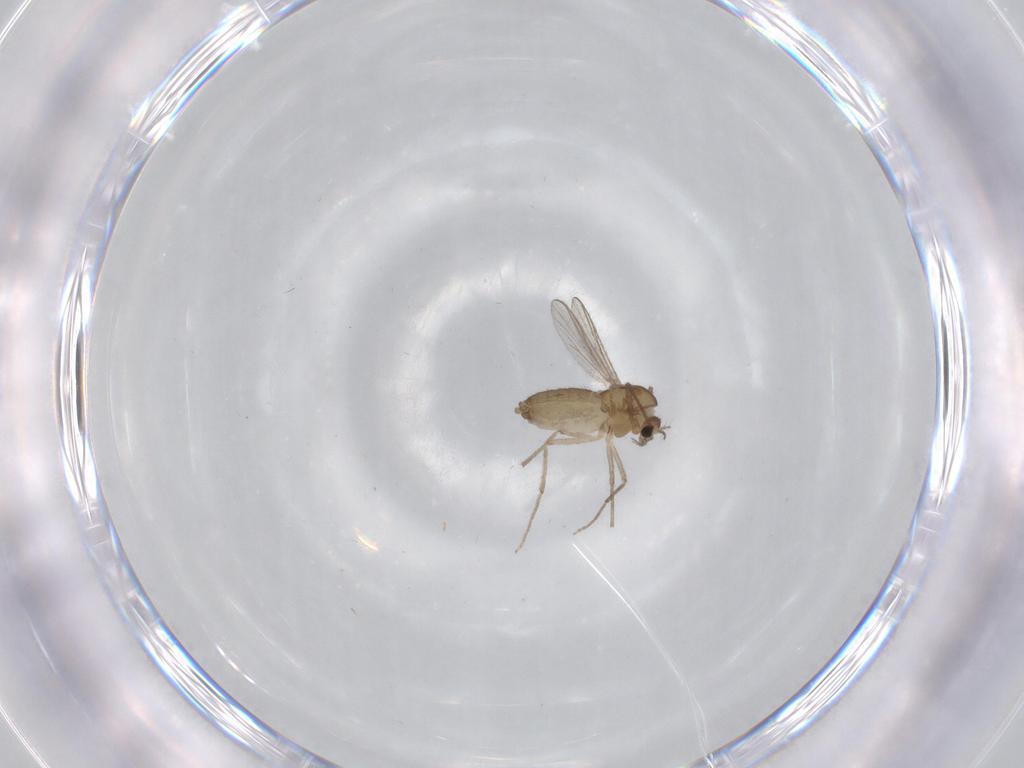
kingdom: Animalia
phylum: Arthropoda
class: Insecta
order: Diptera
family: Chironomidae
